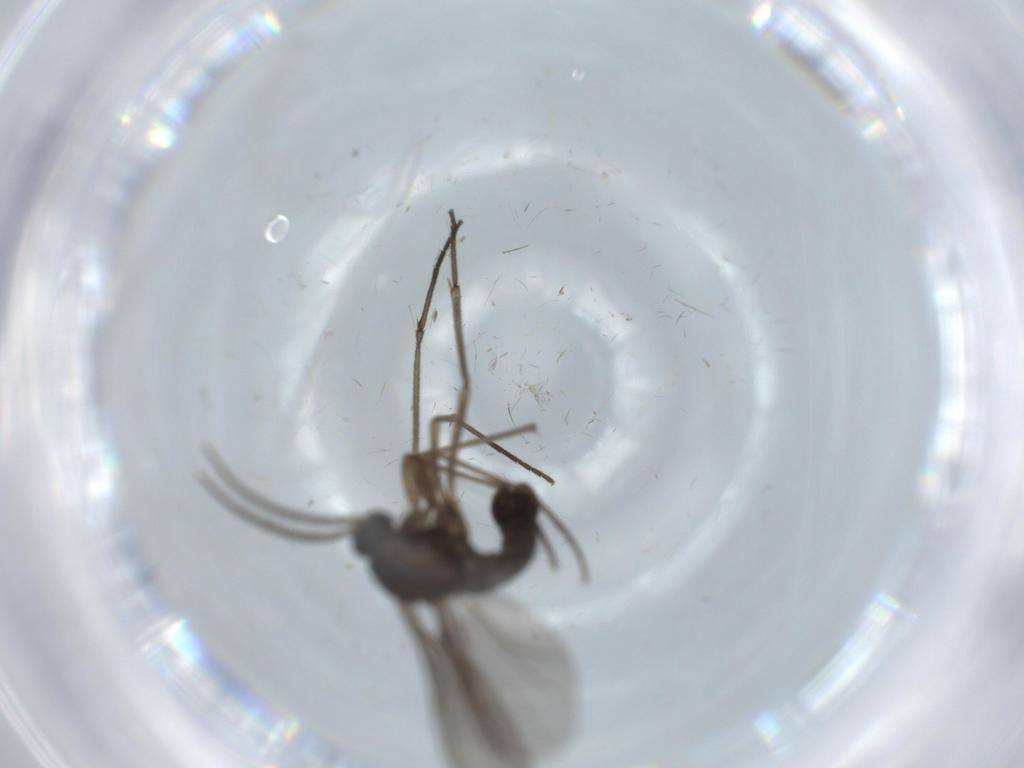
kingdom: Animalia
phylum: Arthropoda
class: Insecta
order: Diptera
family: Sciaridae
